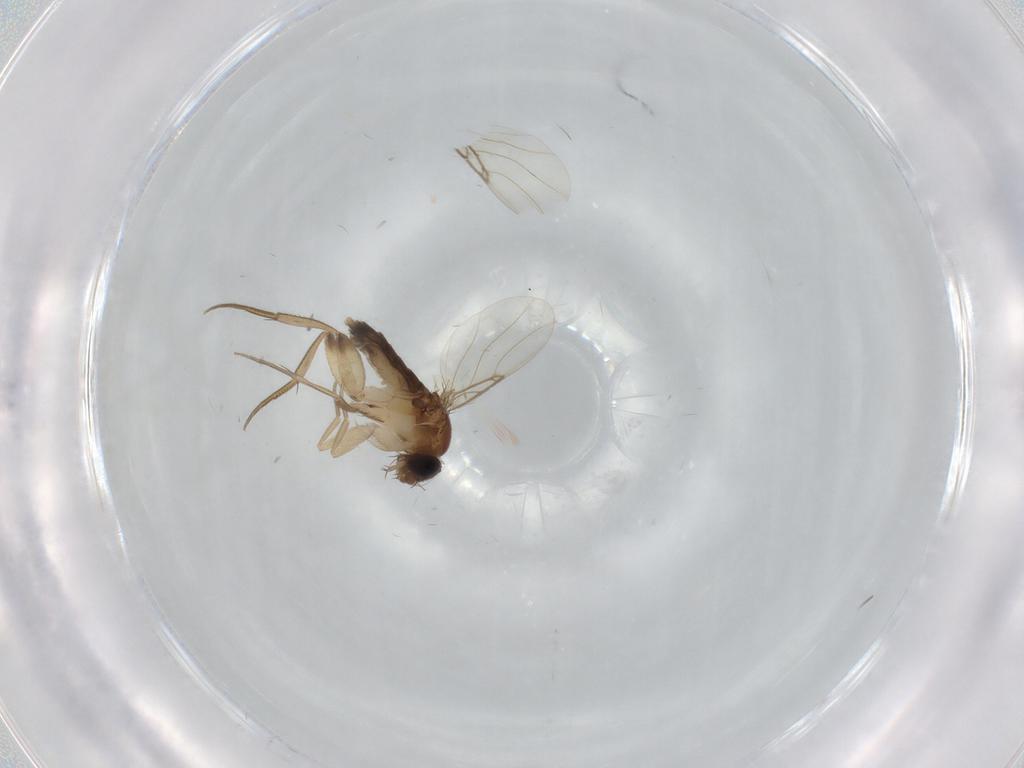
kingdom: Animalia
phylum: Arthropoda
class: Insecta
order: Diptera
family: Phoridae
